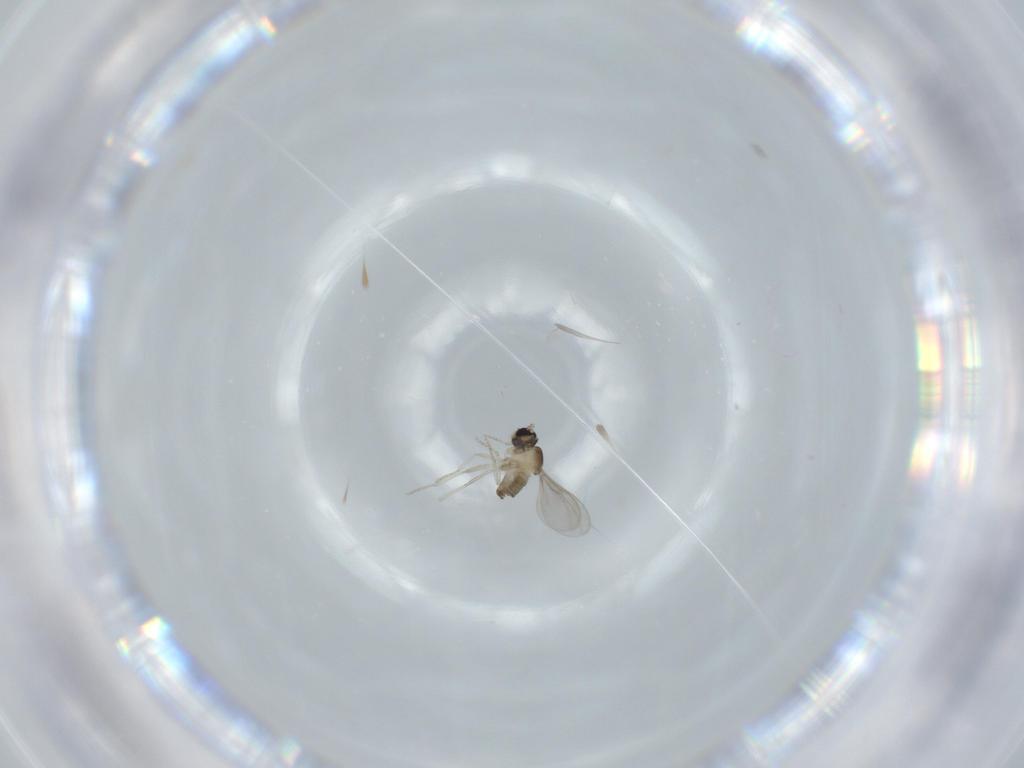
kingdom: Animalia
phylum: Arthropoda
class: Insecta
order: Diptera
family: Cecidomyiidae
